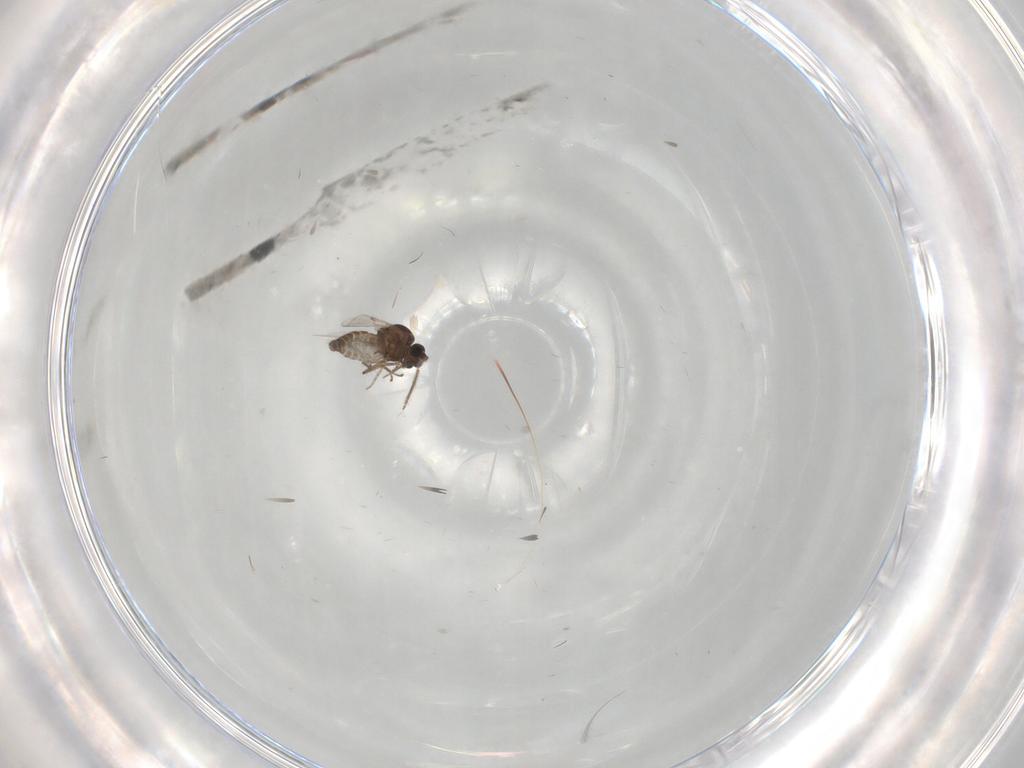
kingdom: Animalia
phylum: Arthropoda
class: Insecta
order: Diptera
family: Ceratopogonidae
